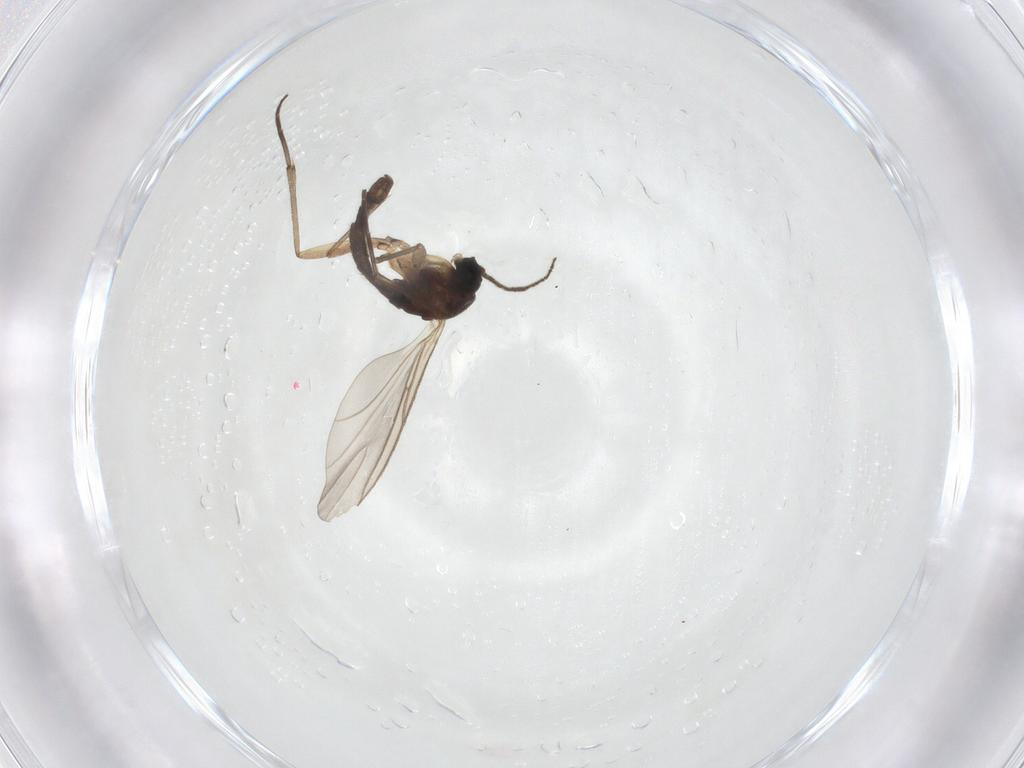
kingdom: Animalia
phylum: Arthropoda
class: Insecta
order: Diptera
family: Sciaridae
